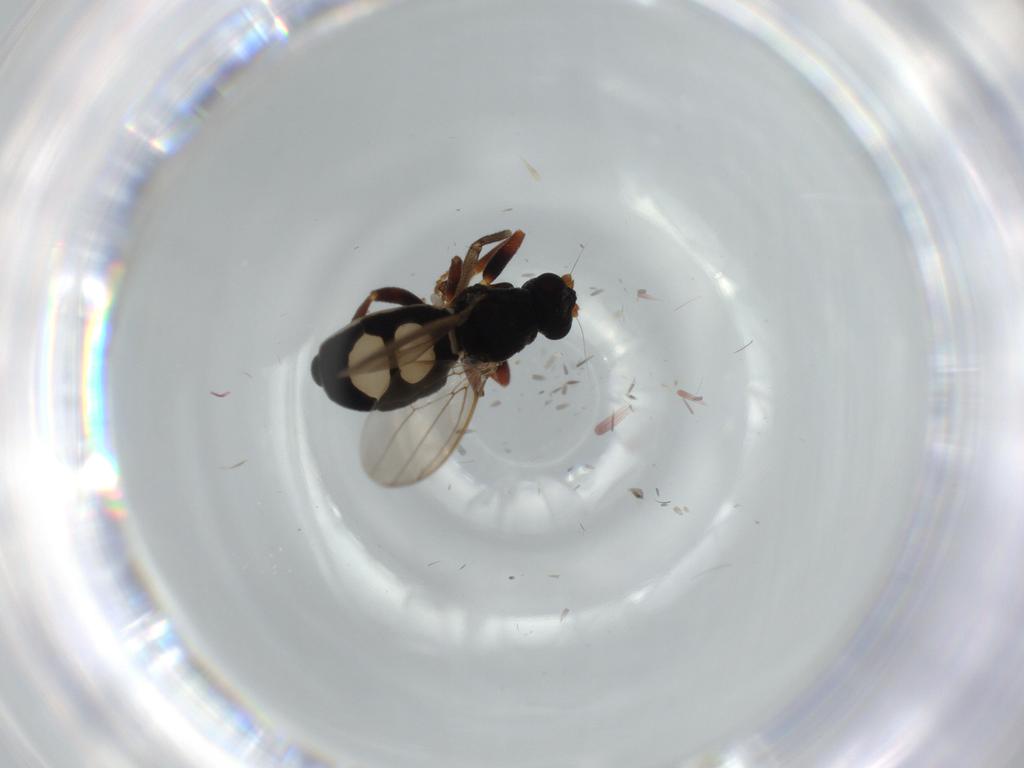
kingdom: Animalia
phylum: Arthropoda
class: Insecta
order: Diptera
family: Sphaeroceridae
